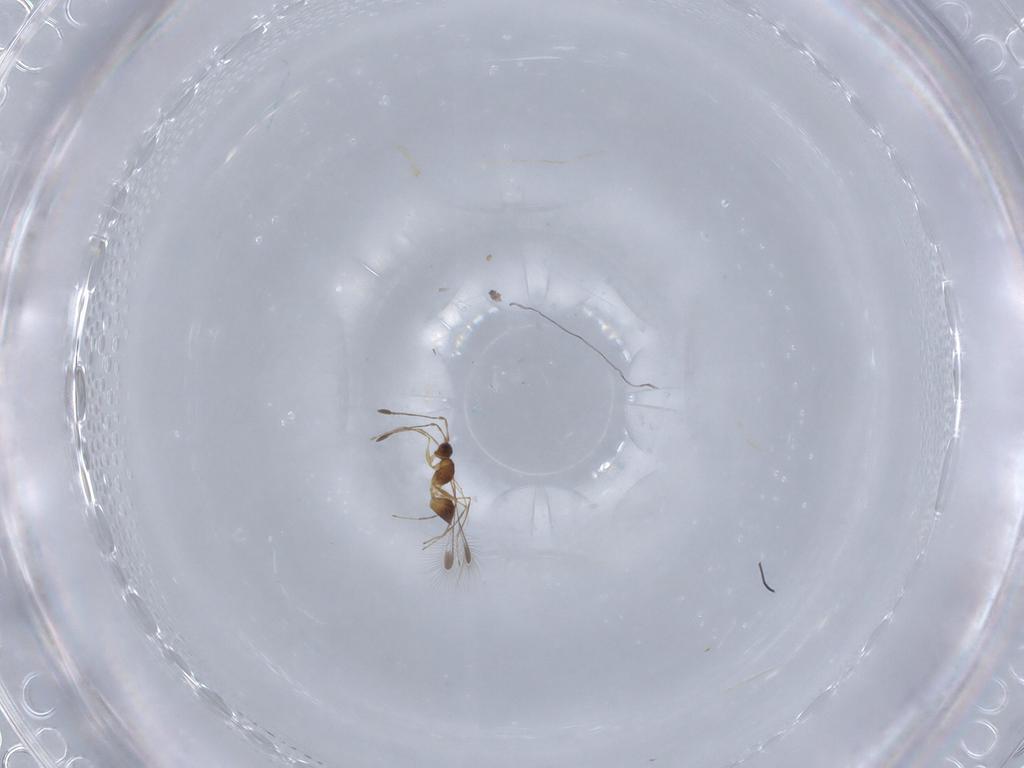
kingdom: Animalia
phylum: Arthropoda
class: Insecta
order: Hymenoptera
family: Mymaridae
